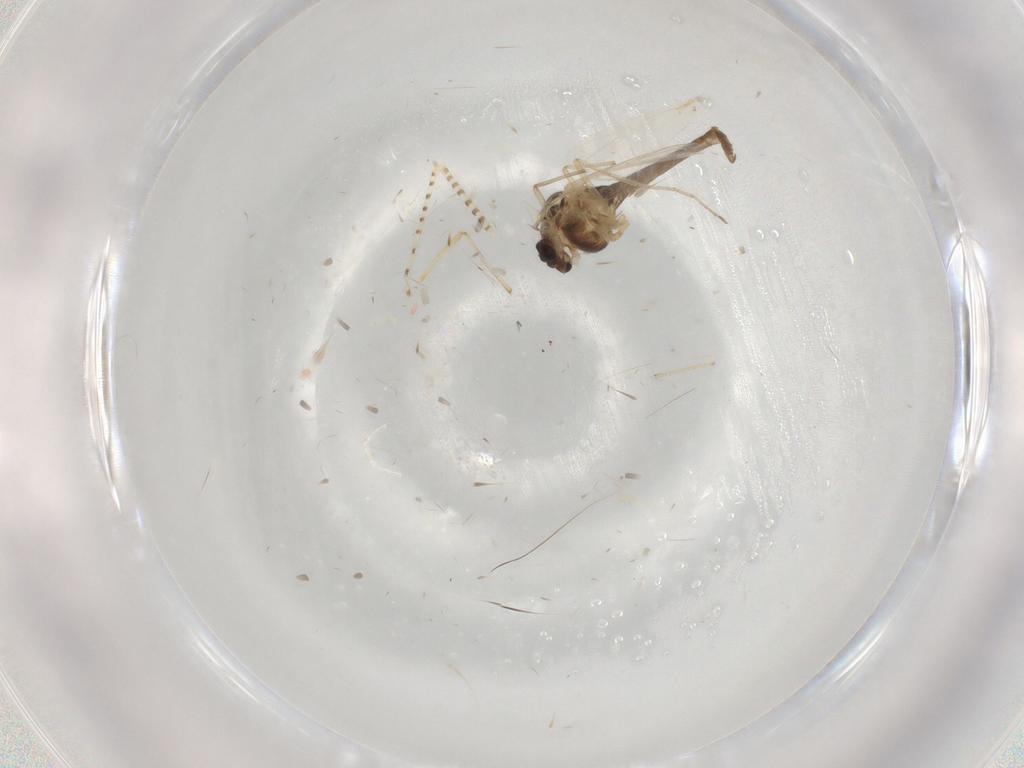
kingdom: Animalia
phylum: Arthropoda
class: Insecta
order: Diptera
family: Chironomidae
